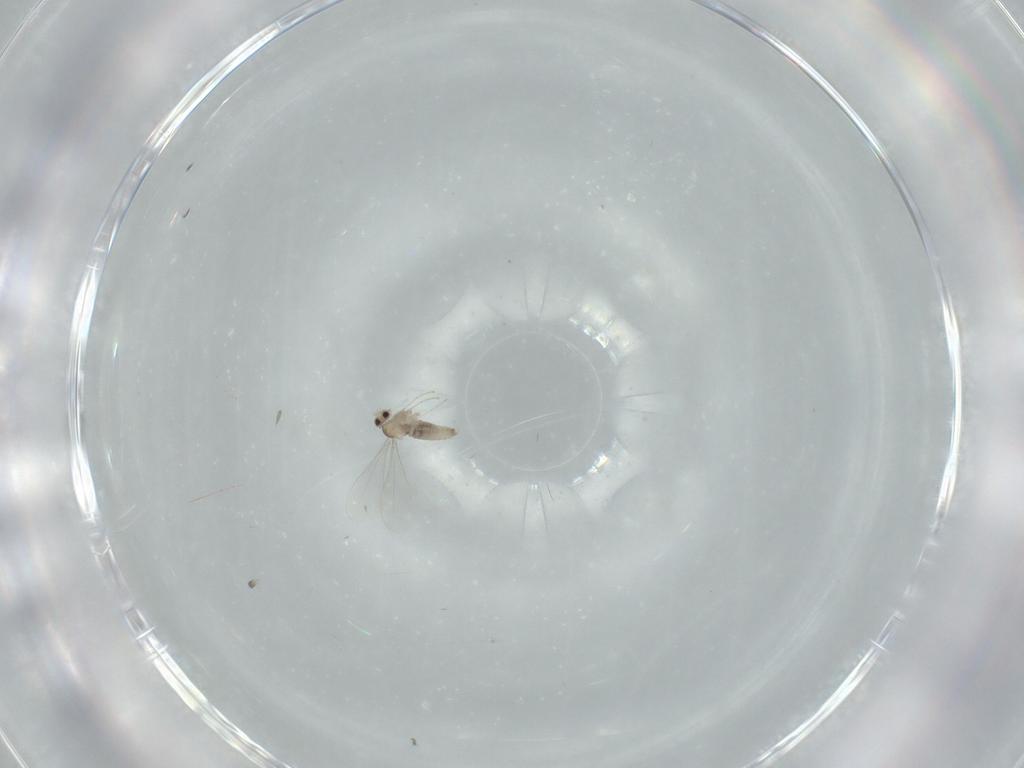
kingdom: Animalia
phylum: Arthropoda
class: Insecta
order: Diptera
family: Cecidomyiidae
